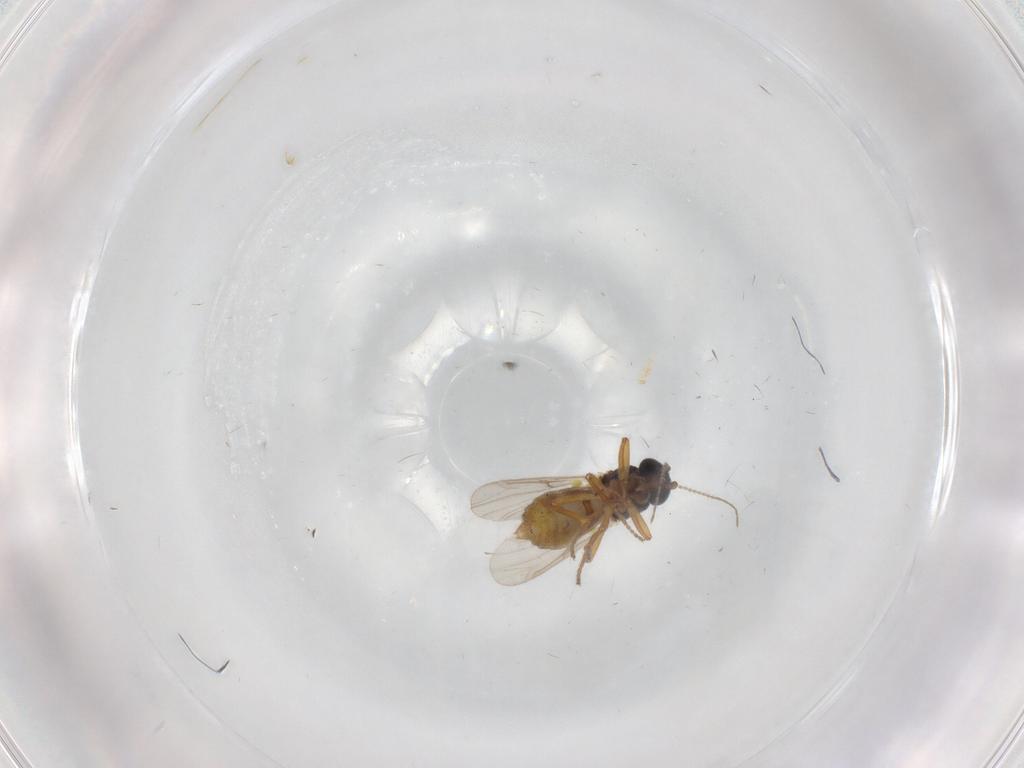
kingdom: Animalia
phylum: Arthropoda
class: Insecta
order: Diptera
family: Ceratopogonidae
